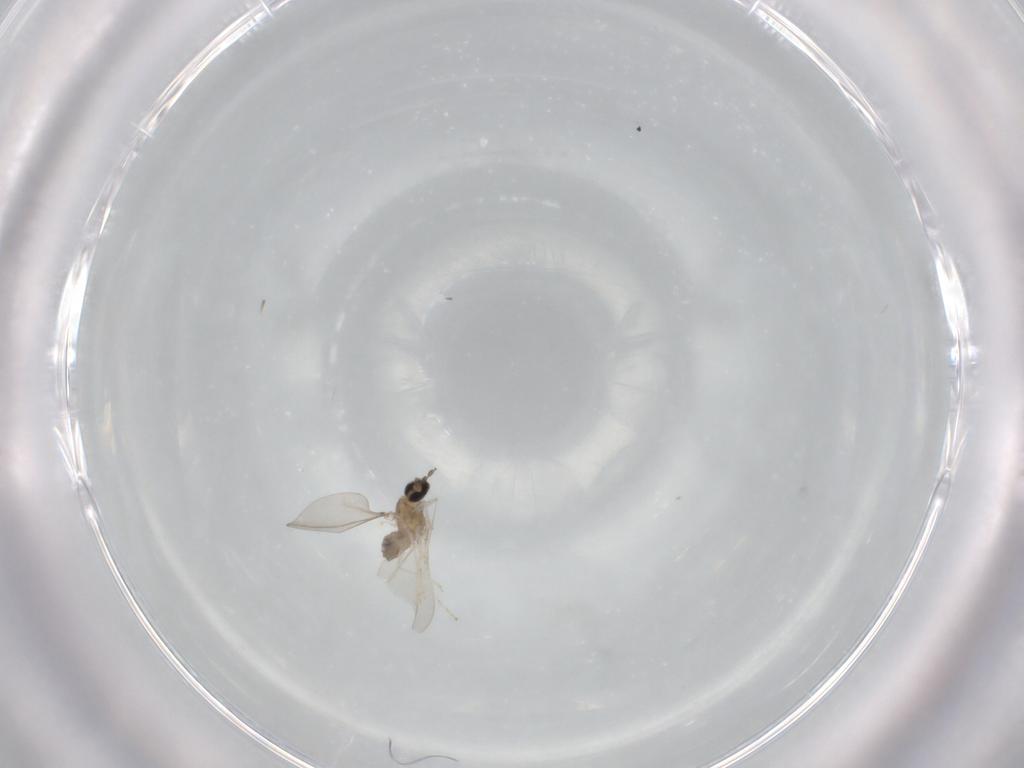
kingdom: Animalia
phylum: Arthropoda
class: Insecta
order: Diptera
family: Cecidomyiidae
